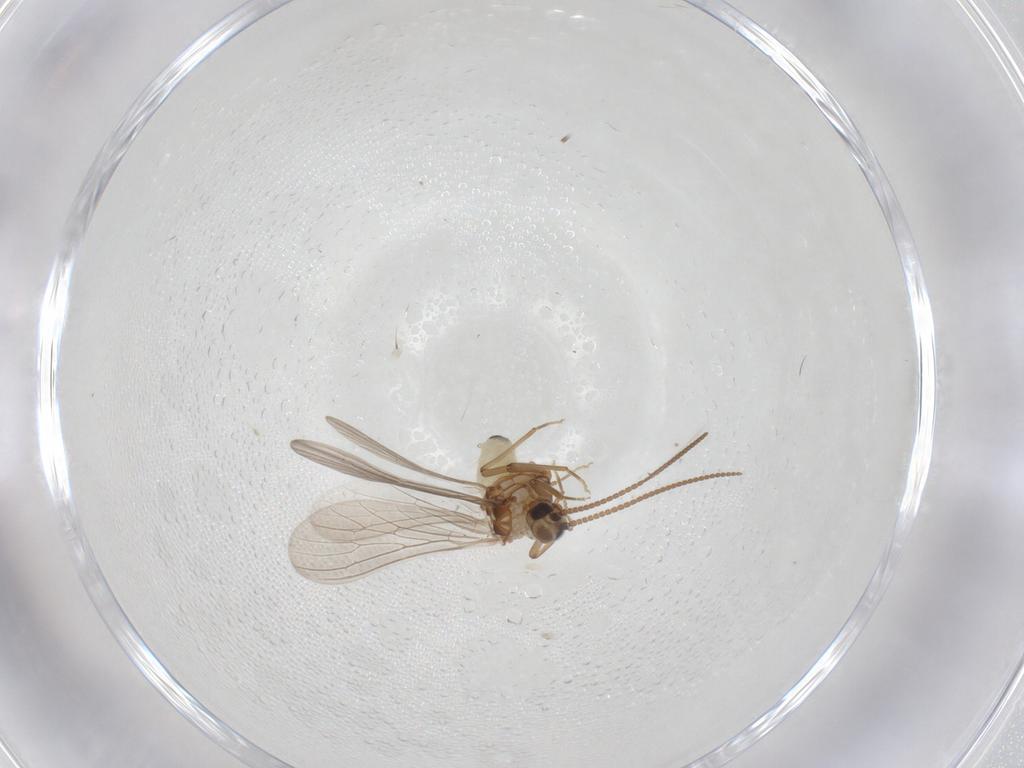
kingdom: Animalia
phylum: Arthropoda
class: Insecta
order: Neuroptera
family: Coniopterygidae
